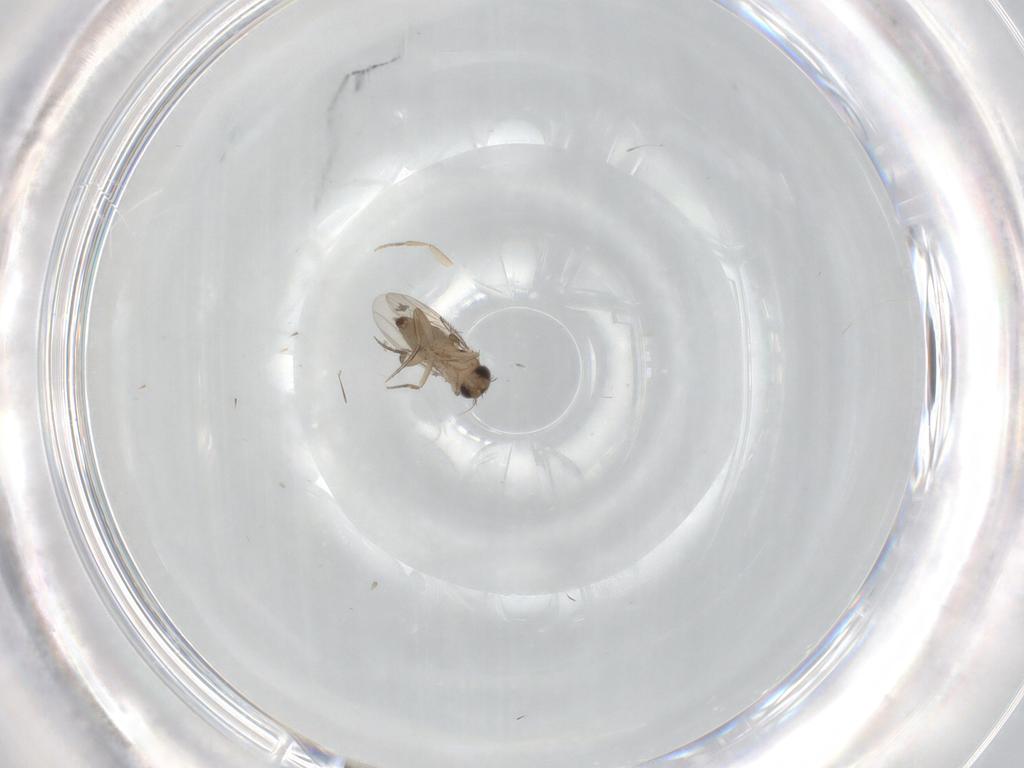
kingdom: Animalia
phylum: Arthropoda
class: Insecta
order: Diptera
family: Phoridae
